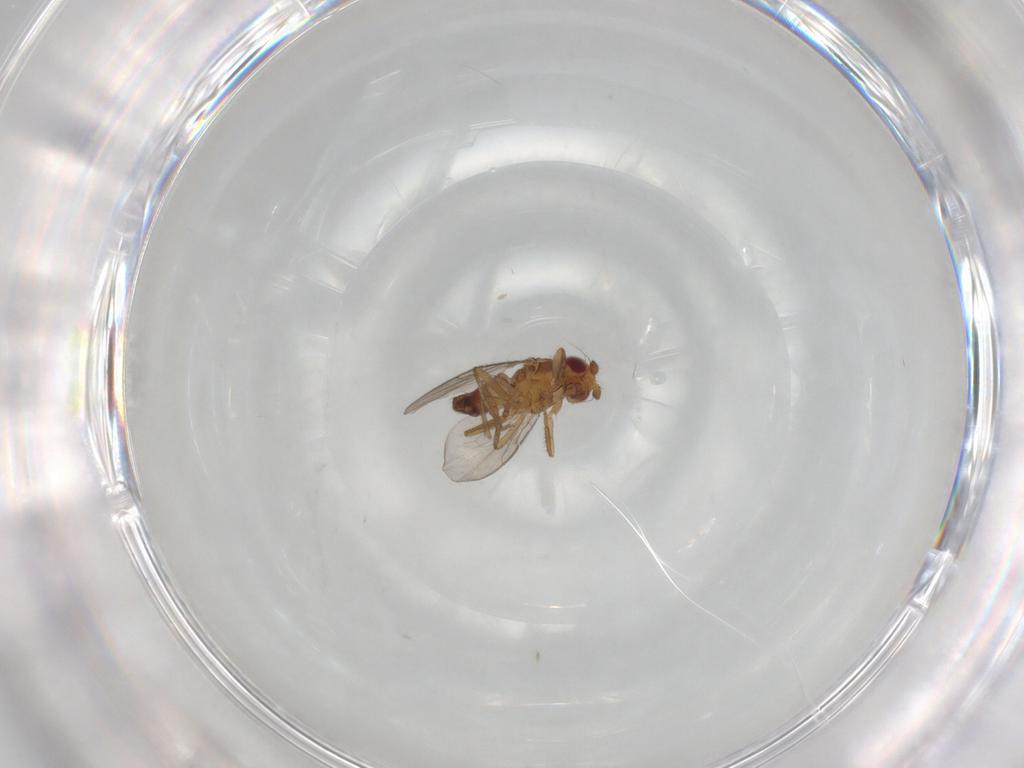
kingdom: Animalia
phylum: Arthropoda
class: Insecta
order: Diptera
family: Sphaeroceridae
